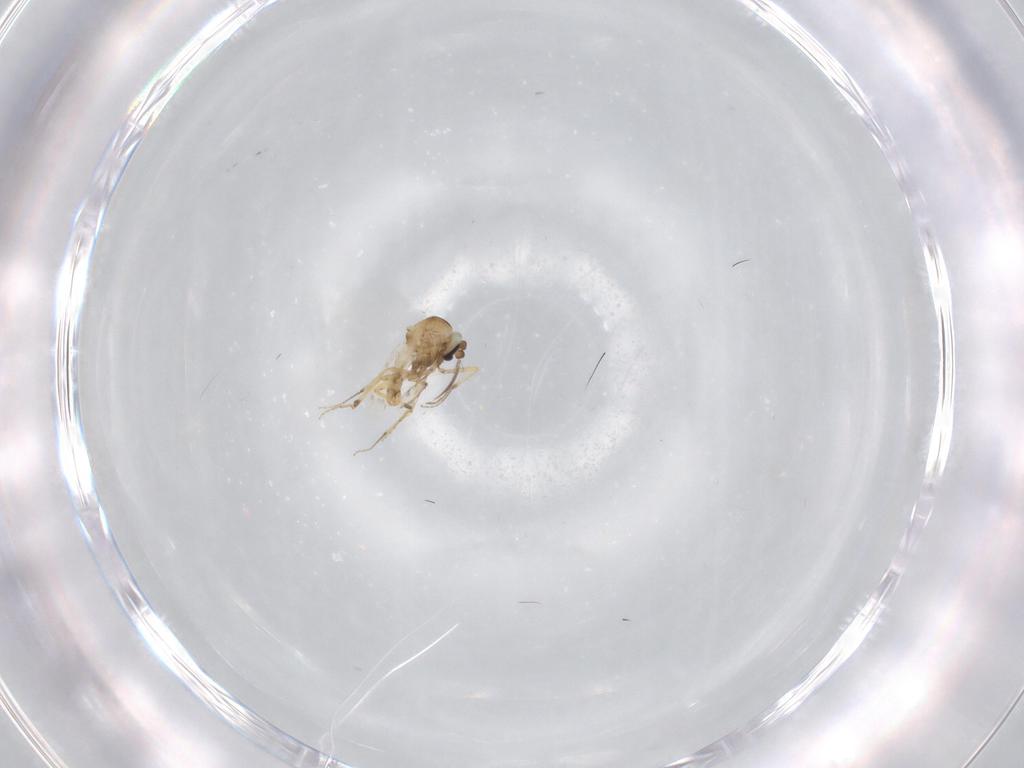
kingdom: Animalia
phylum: Arthropoda
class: Insecta
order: Diptera
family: Ceratopogonidae
